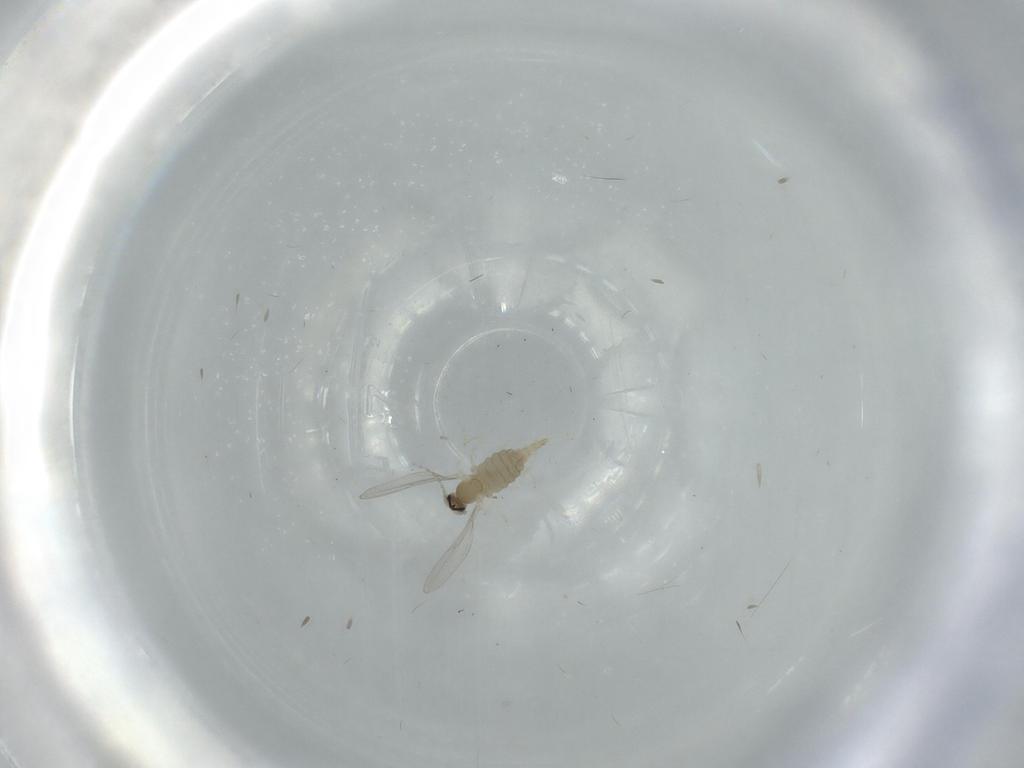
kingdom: Animalia
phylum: Arthropoda
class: Insecta
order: Diptera
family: Cecidomyiidae
